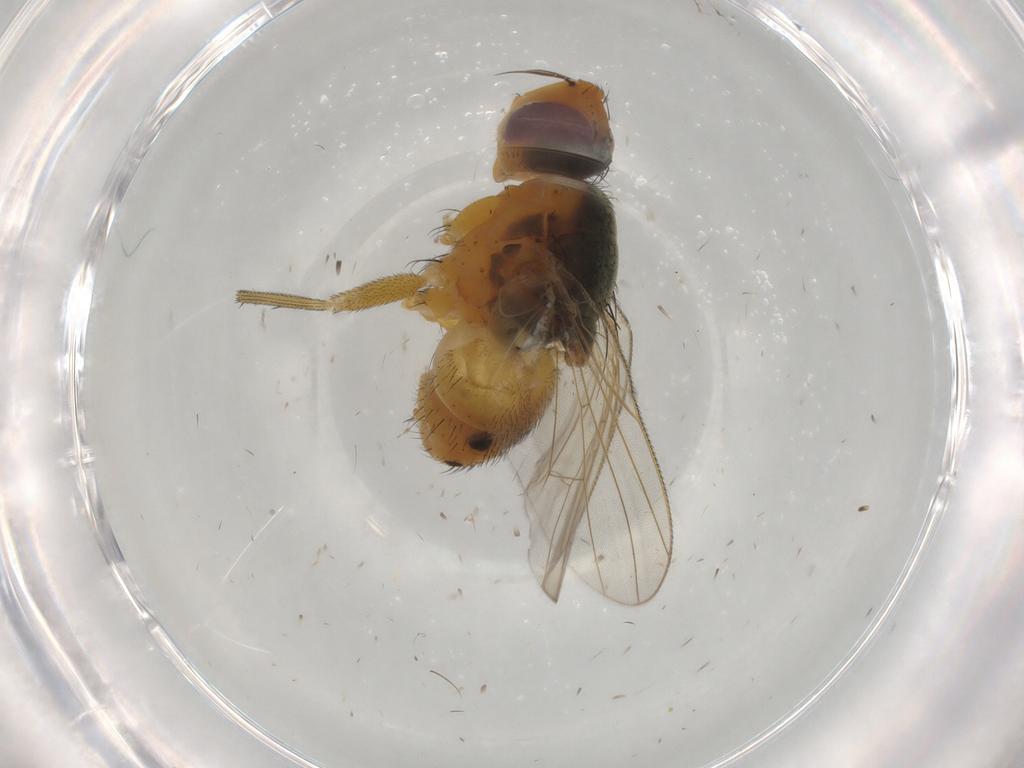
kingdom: Animalia
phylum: Arthropoda
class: Insecta
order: Diptera
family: Muscidae
